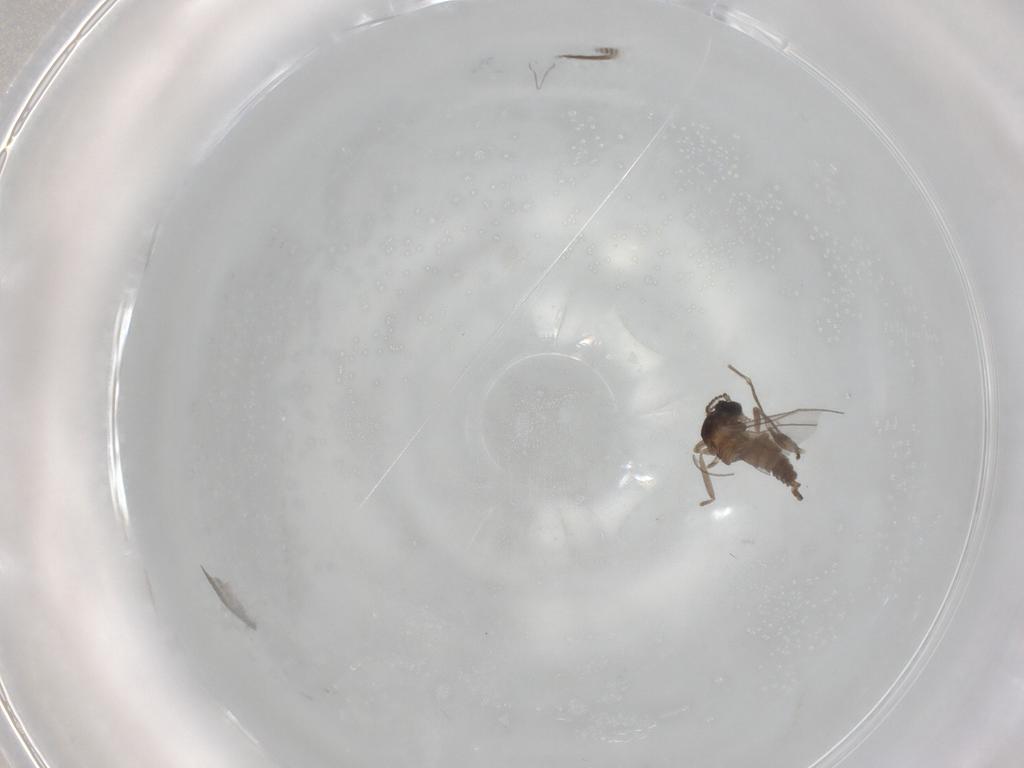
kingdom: Animalia
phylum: Arthropoda
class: Insecta
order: Diptera
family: Cecidomyiidae
